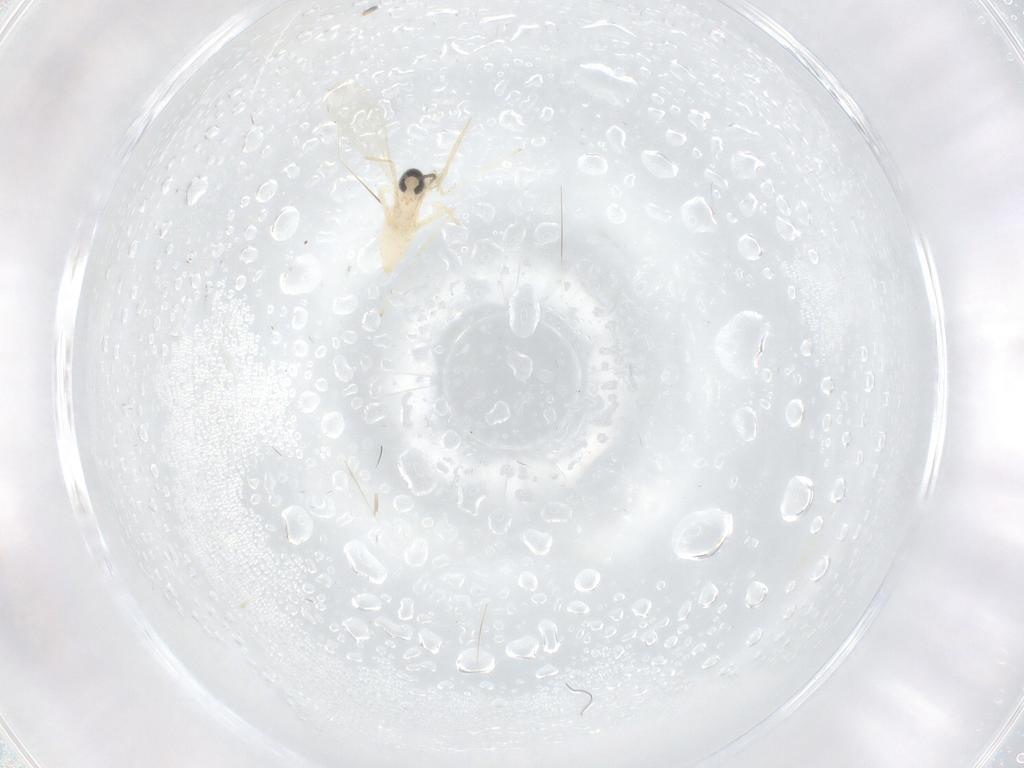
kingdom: Animalia
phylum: Arthropoda
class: Insecta
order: Diptera
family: Cecidomyiidae
